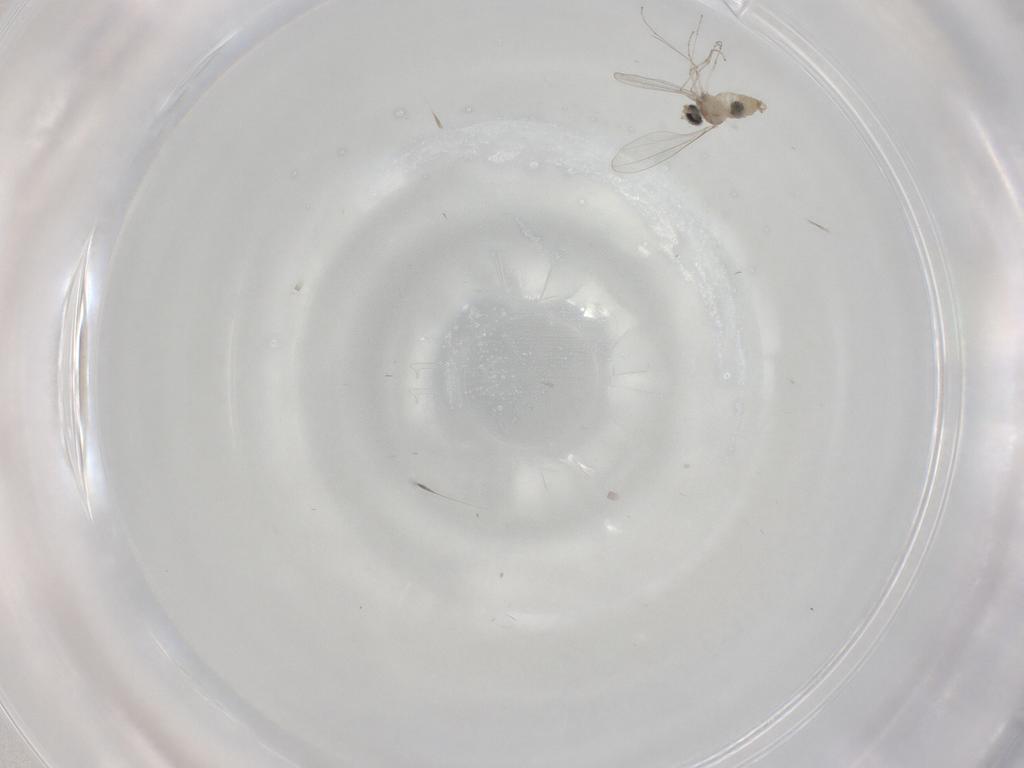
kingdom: Animalia
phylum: Arthropoda
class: Insecta
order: Diptera
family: Cecidomyiidae
